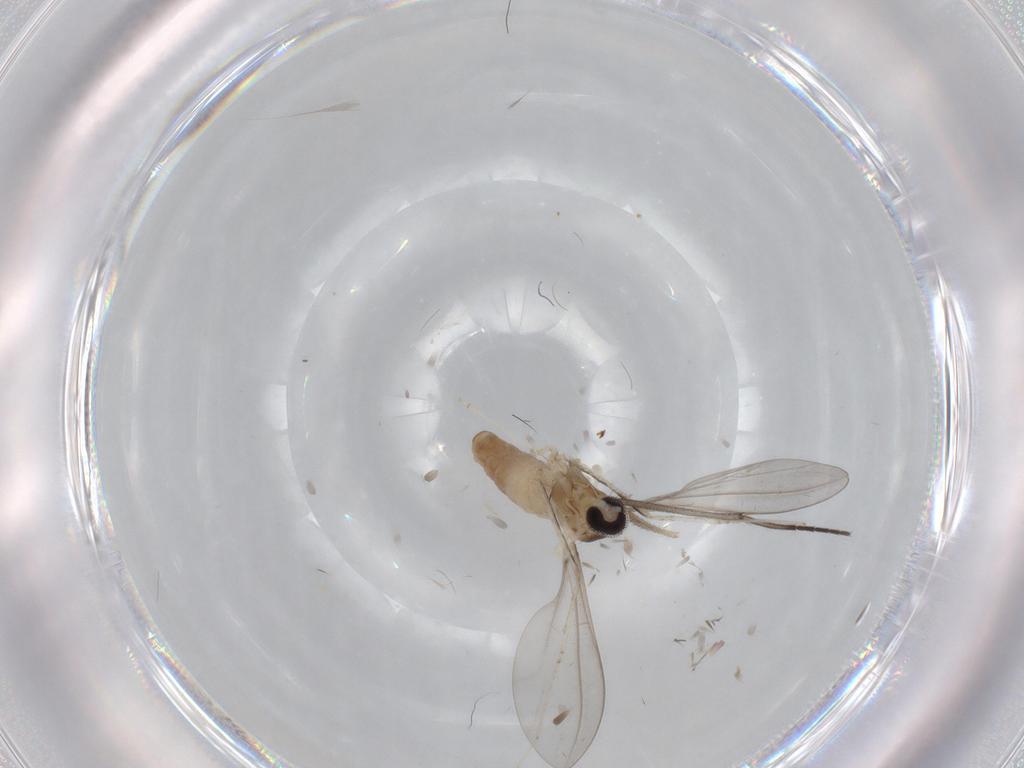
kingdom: Animalia
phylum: Arthropoda
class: Insecta
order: Diptera
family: Cecidomyiidae
